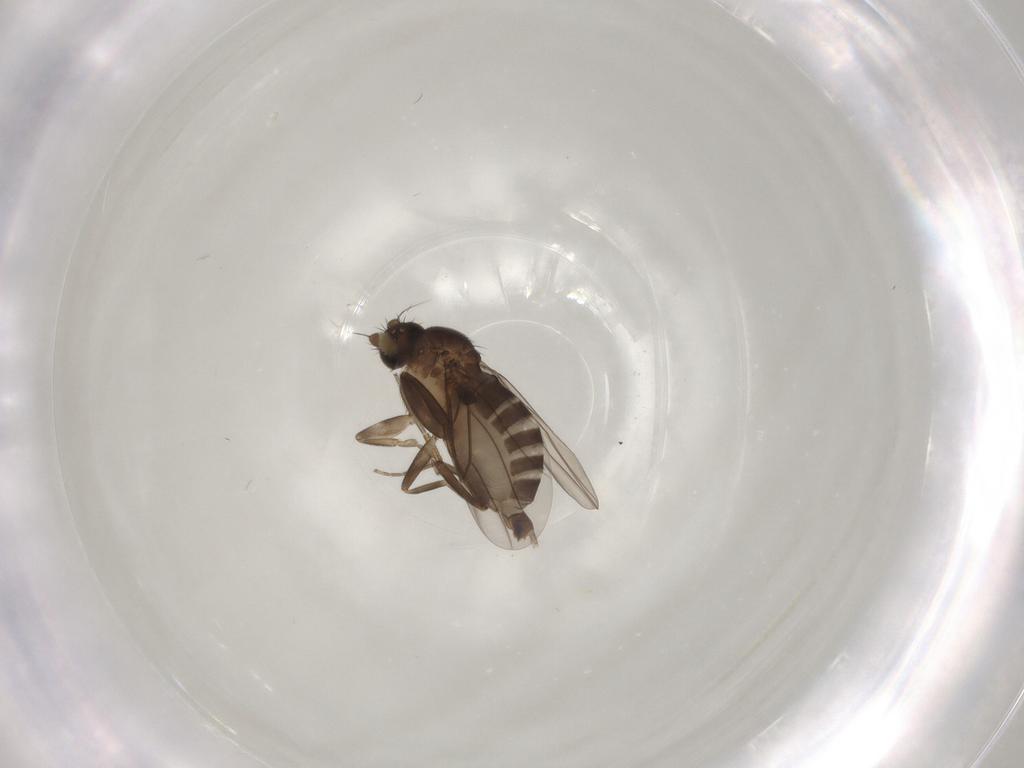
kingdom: Animalia
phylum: Arthropoda
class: Insecta
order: Diptera
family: Phoridae
